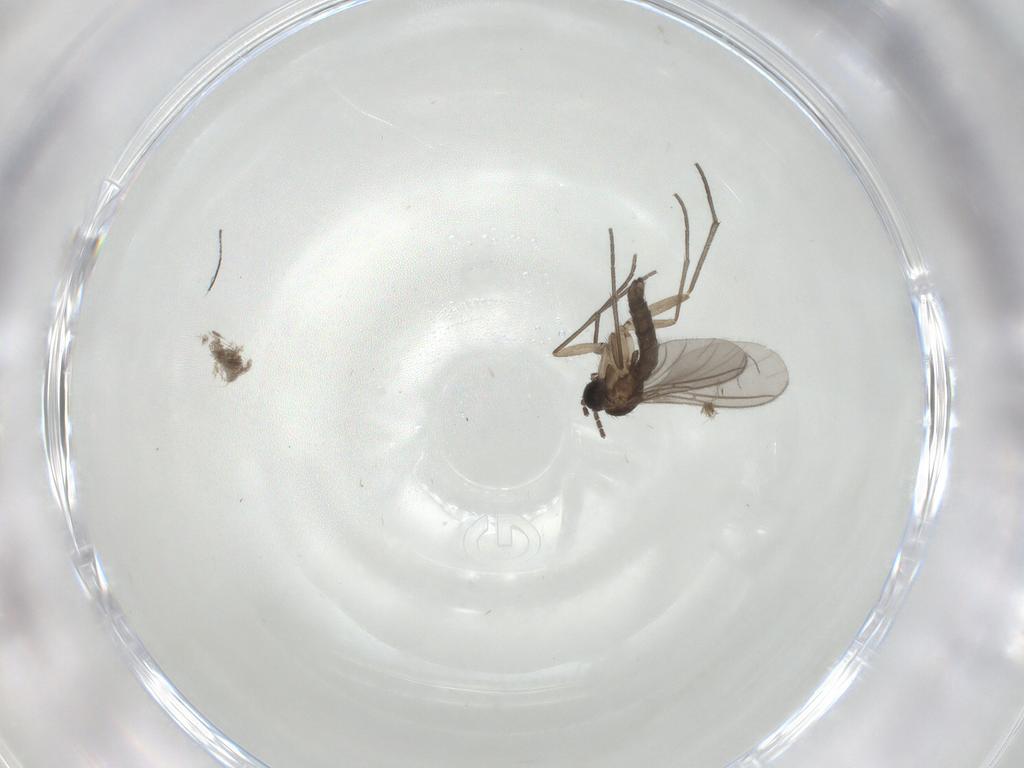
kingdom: Animalia
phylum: Arthropoda
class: Insecta
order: Diptera
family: Sciaridae
